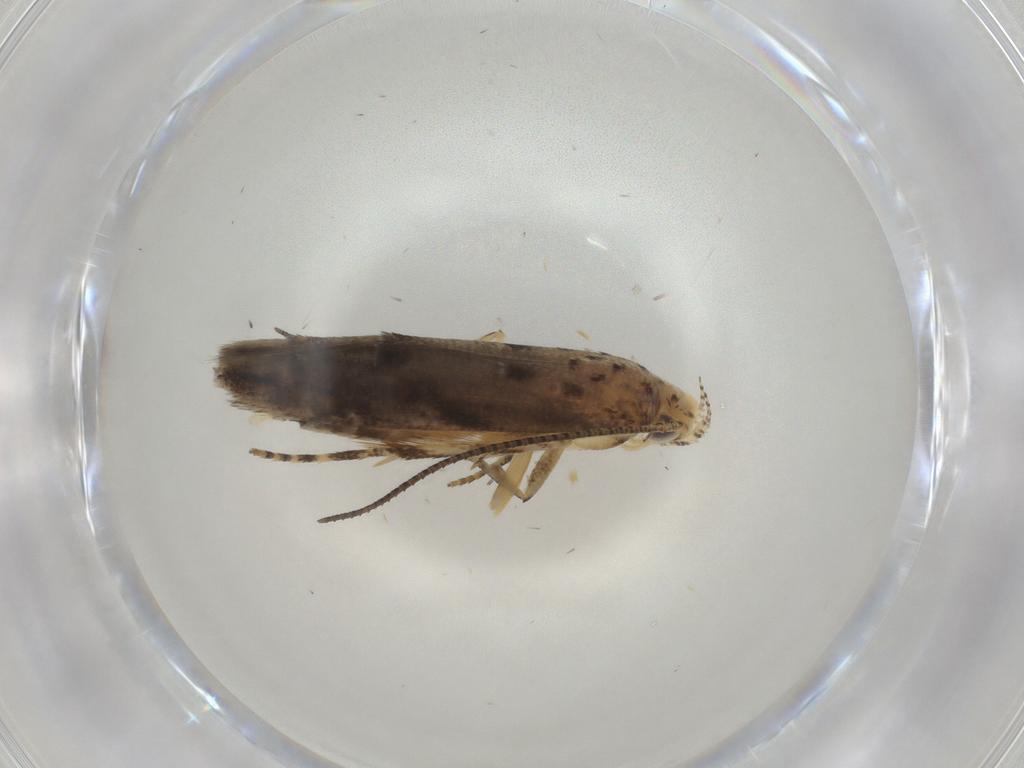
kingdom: Animalia
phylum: Arthropoda
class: Insecta
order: Lepidoptera
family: Gelechiidae
